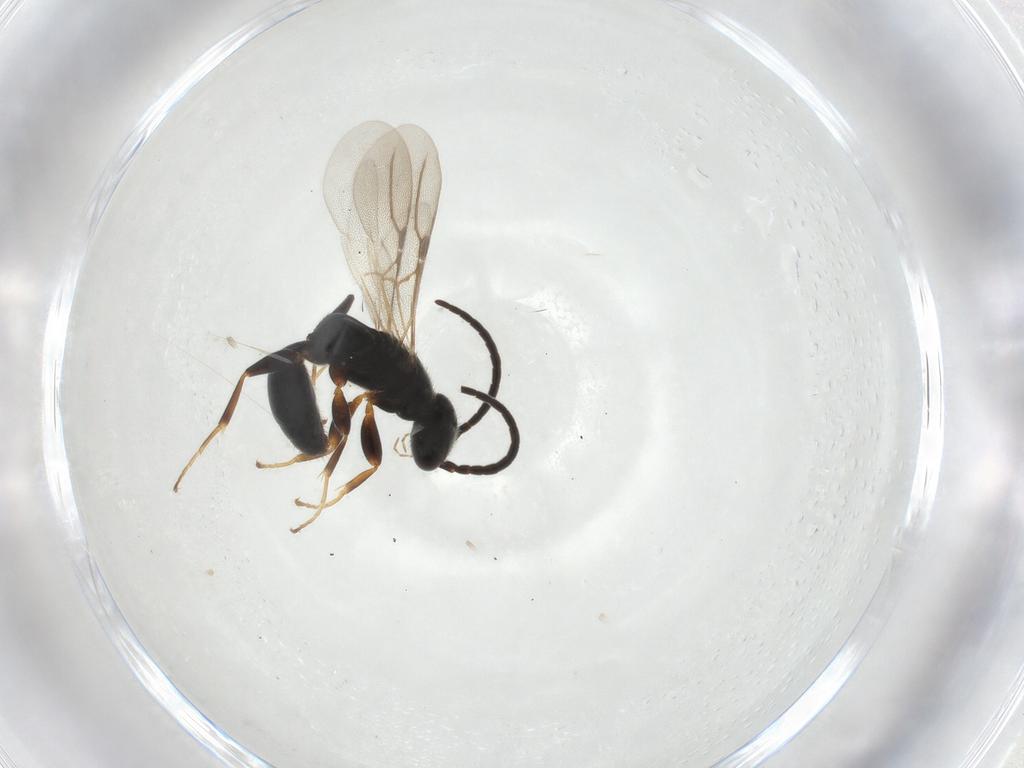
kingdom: Animalia
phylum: Arthropoda
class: Insecta
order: Hymenoptera
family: Bethylidae
